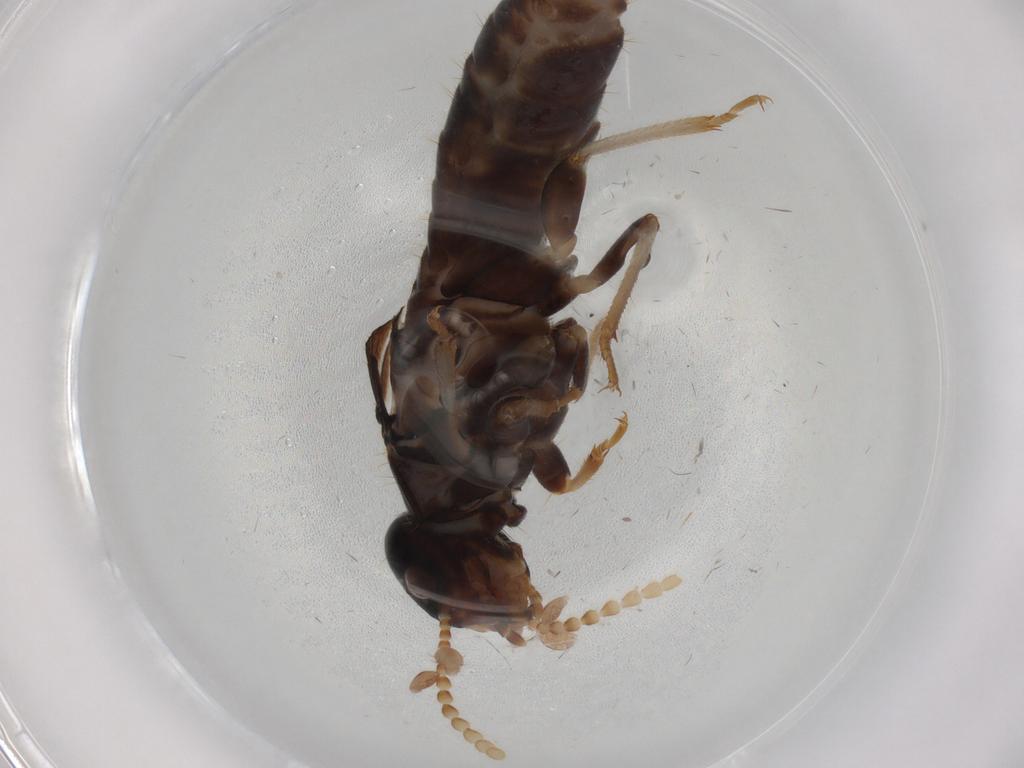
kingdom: Animalia
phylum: Arthropoda
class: Insecta
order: Blattodea
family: Kalotermitidae
